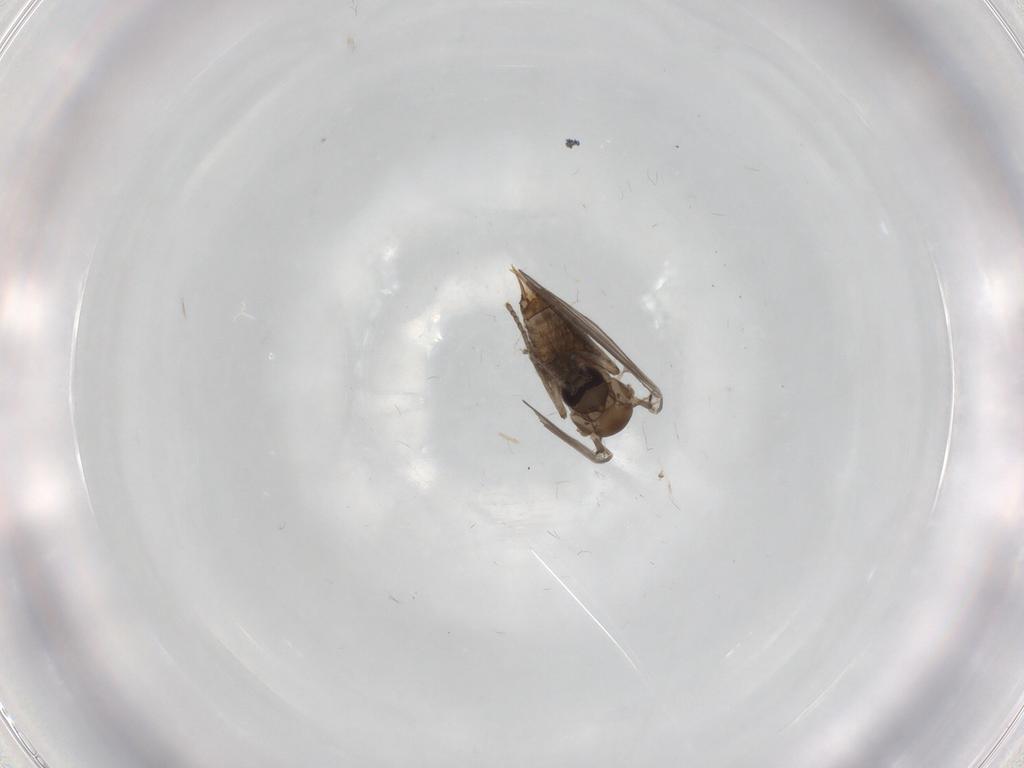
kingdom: Animalia
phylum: Arthropoda
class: Insecta
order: Diptera
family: Psychodidae
